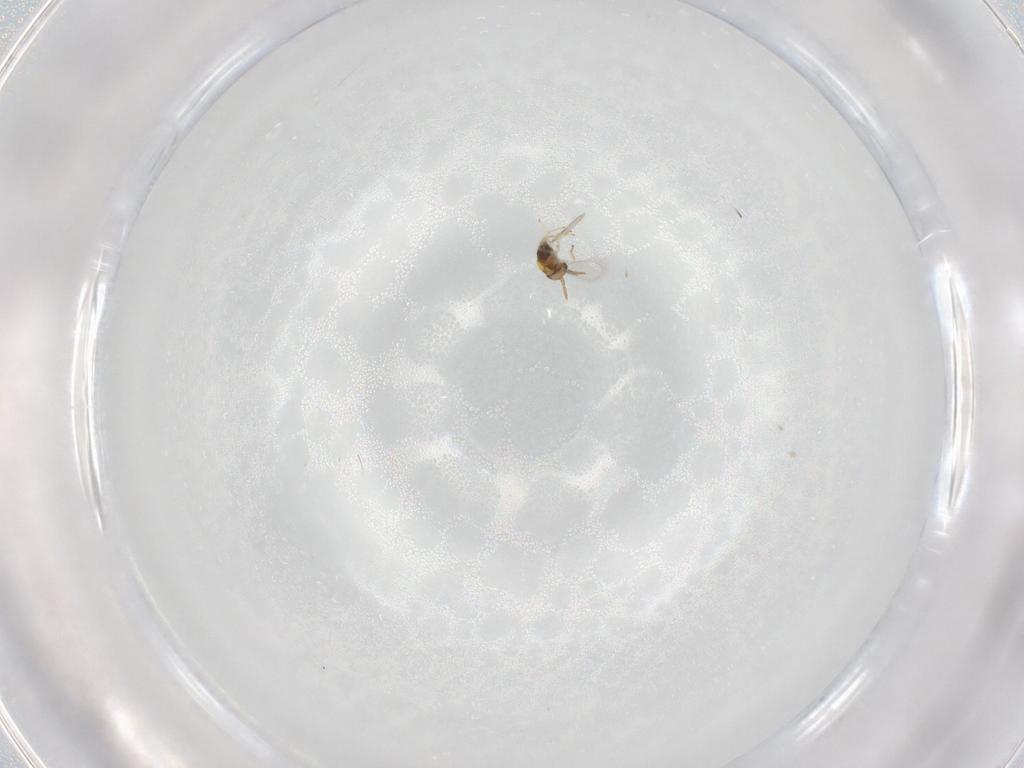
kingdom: Animalia
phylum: Arthropoda
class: Insecta
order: Hymenoptera
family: Aphelinidae
